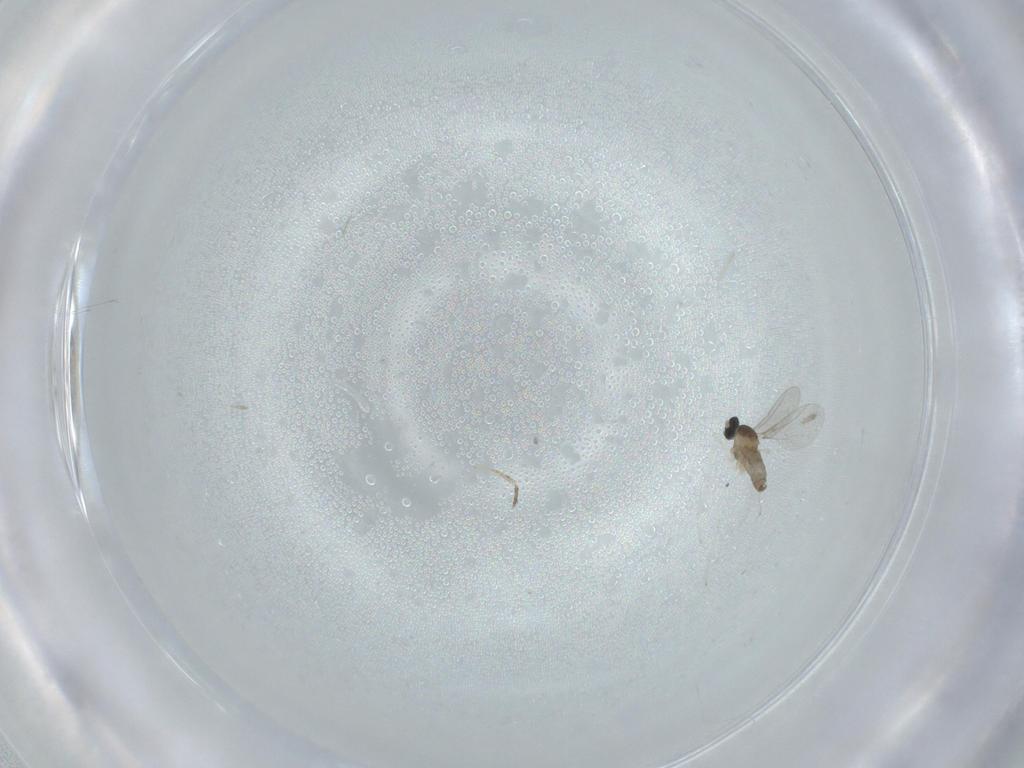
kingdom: Animalia
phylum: Arthropoda
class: Insecta
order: Diptera
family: Cecidomyiidae
